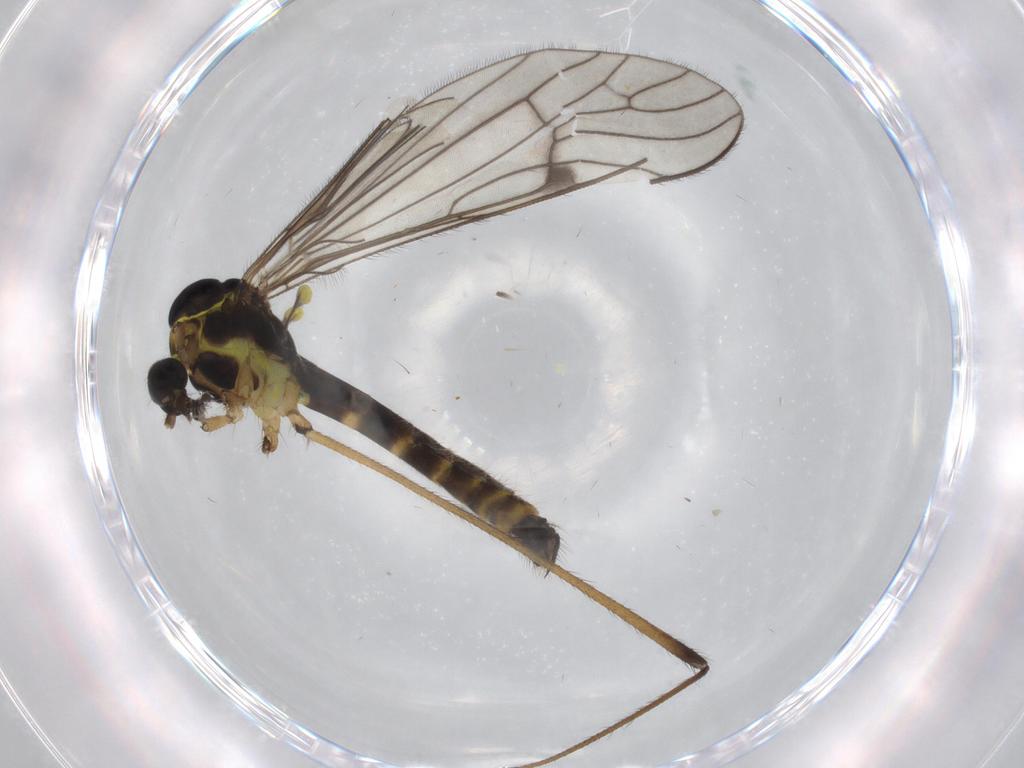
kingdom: Animalia
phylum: Arthropoda
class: Insecta
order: Diptera
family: Limoniidae
